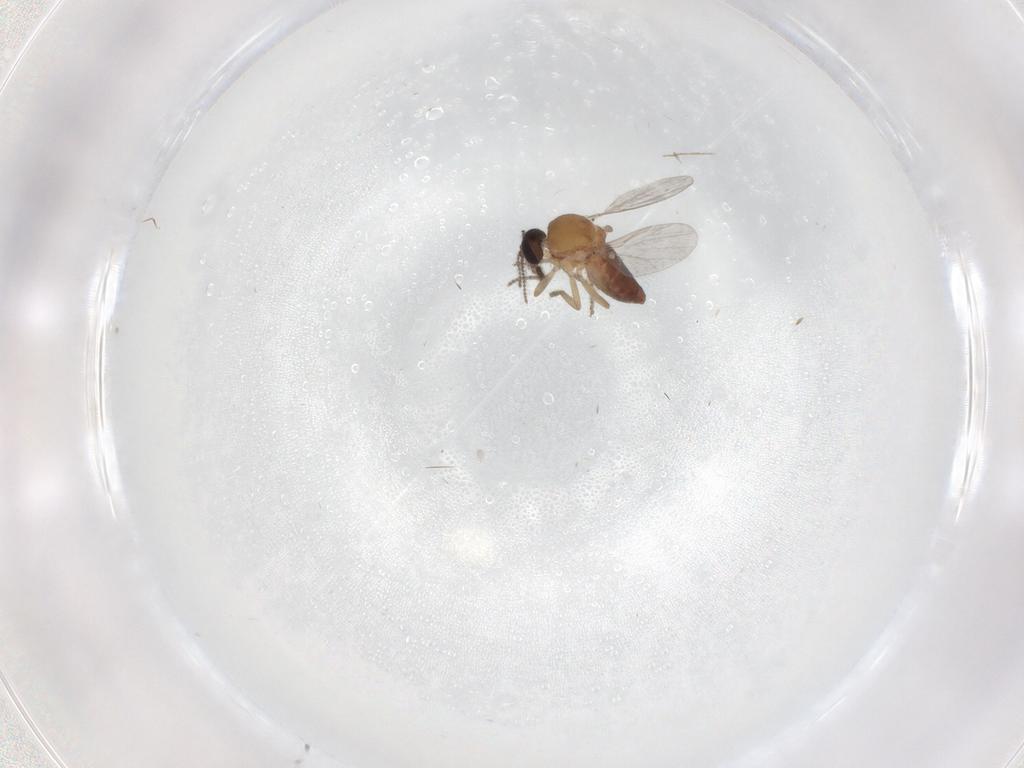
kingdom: Animalia
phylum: Arthropoda
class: Insecta
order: Diptera
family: Ceratopogonidae
